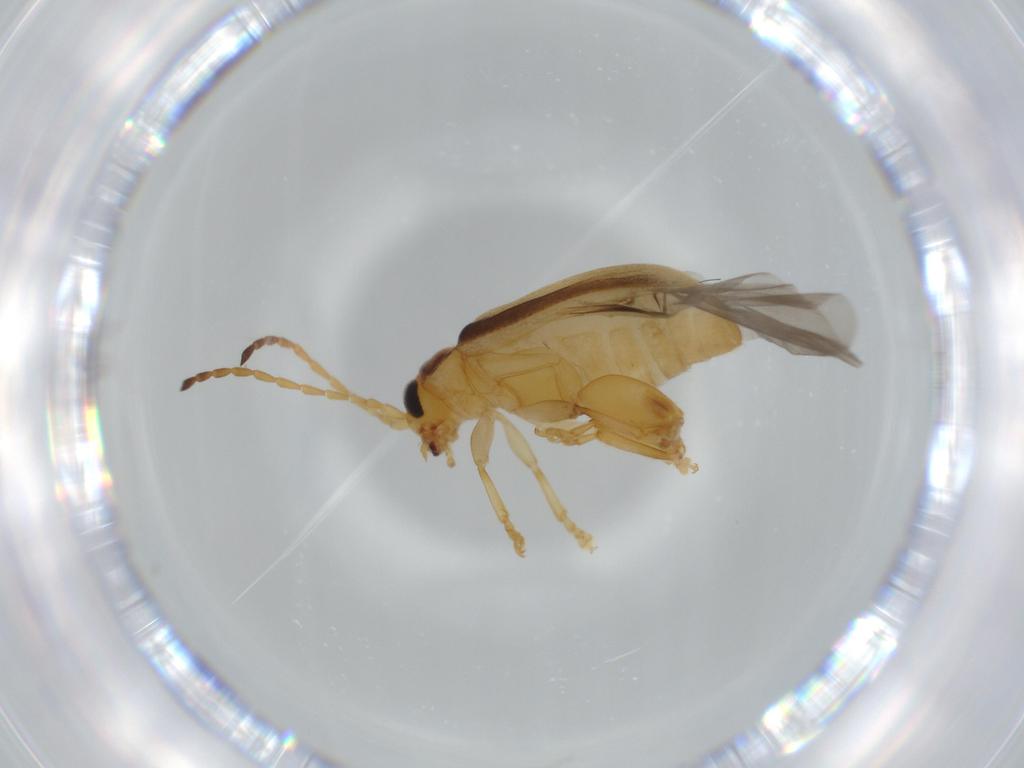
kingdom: Animalia
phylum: Arthropoda
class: Insecta
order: Coleoptera
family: Chrysomelidae
